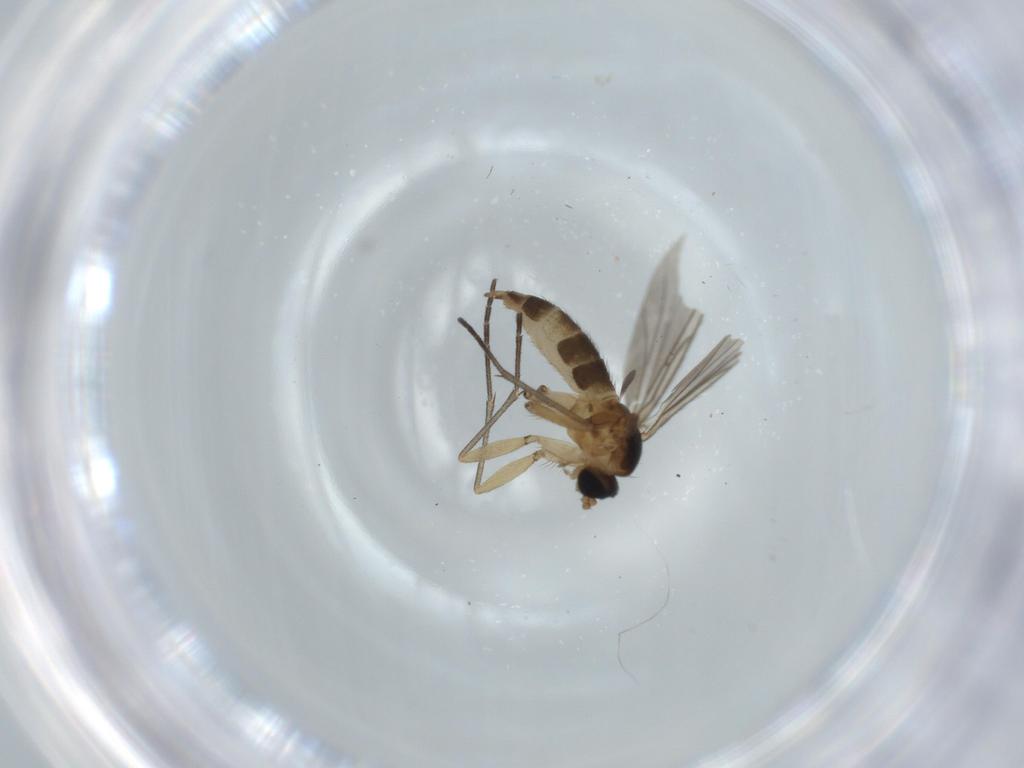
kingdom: Animalia
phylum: Arthropoda
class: Insecta
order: Diptera
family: Sciaridae
